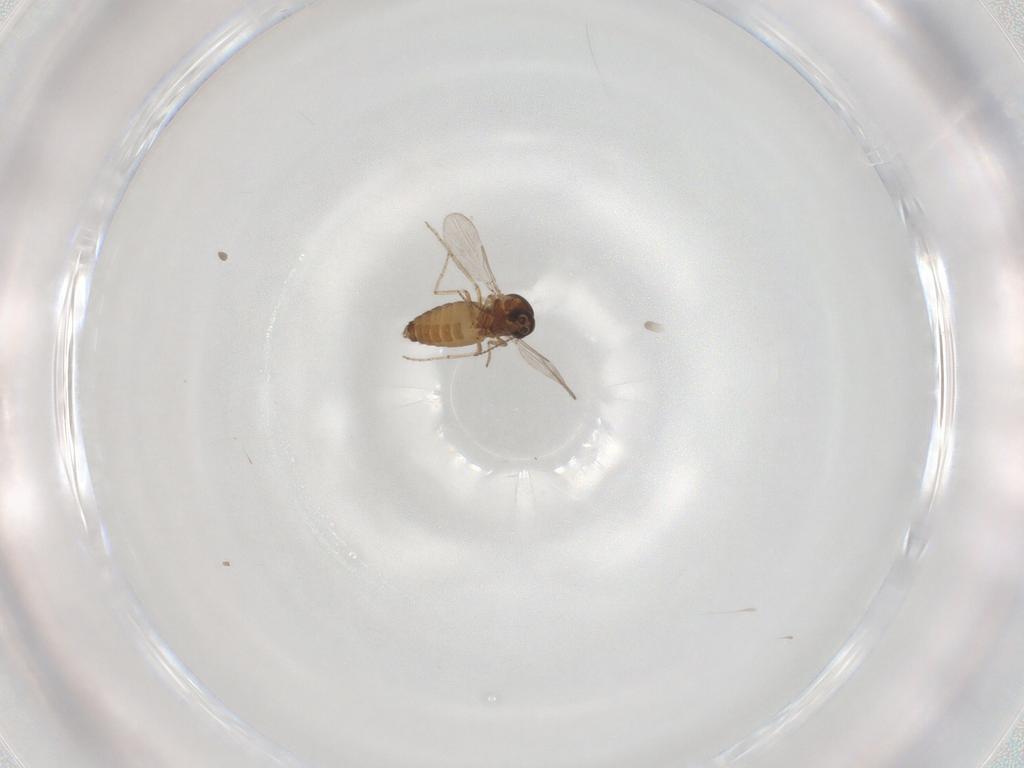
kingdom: Animalia
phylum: Arthropoda
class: Insecta
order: Diptera
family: Ceratopogonidae
